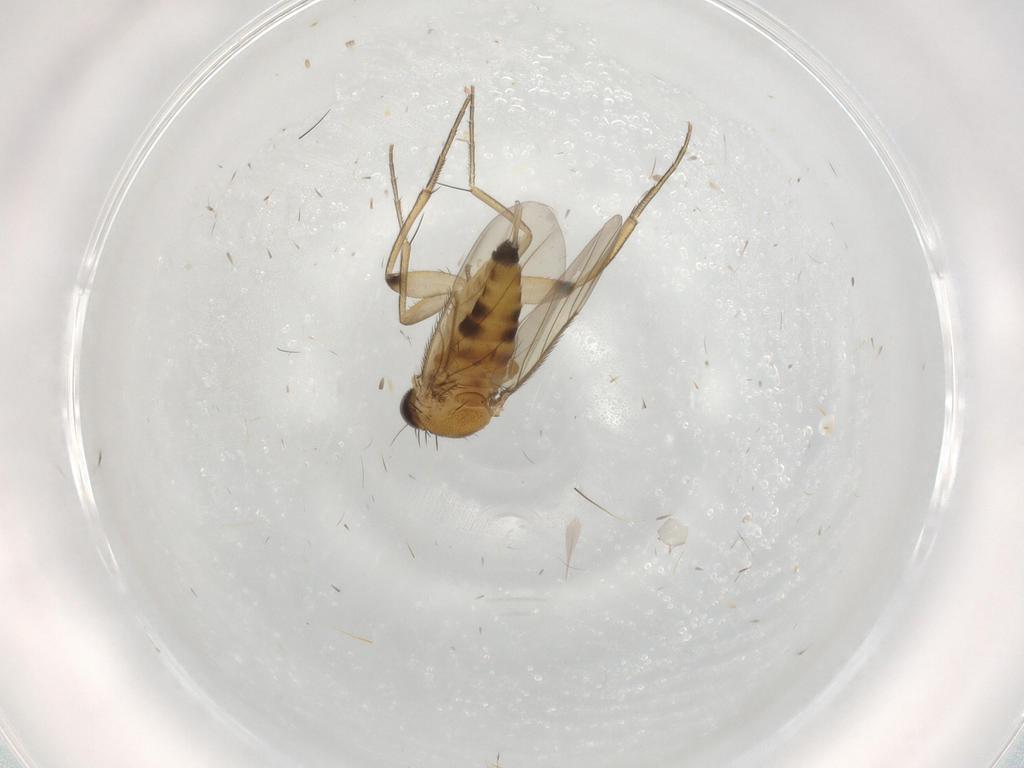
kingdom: Animalia
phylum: Arthropoda
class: Insecta
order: Diptera
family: Phoridae
